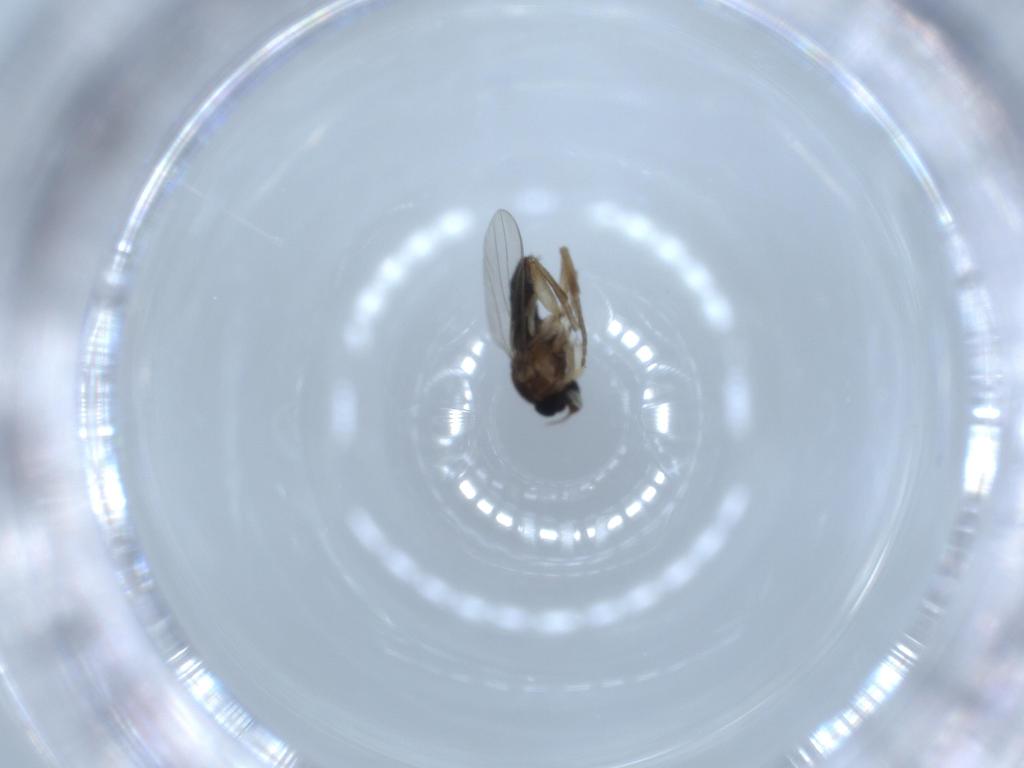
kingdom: Animalia
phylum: Arthropoda
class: Insecta
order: Diptera
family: Phoridae
